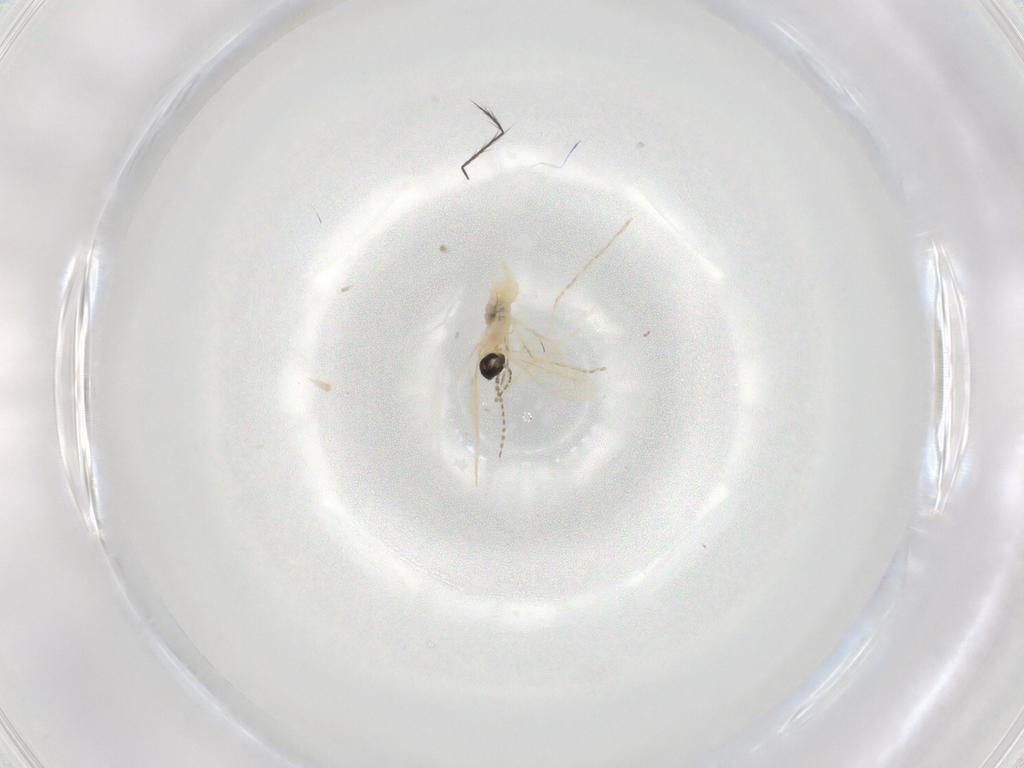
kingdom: Animalia
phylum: Arthropoda
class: Insecta
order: Diptera
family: Cecidomyiidae
